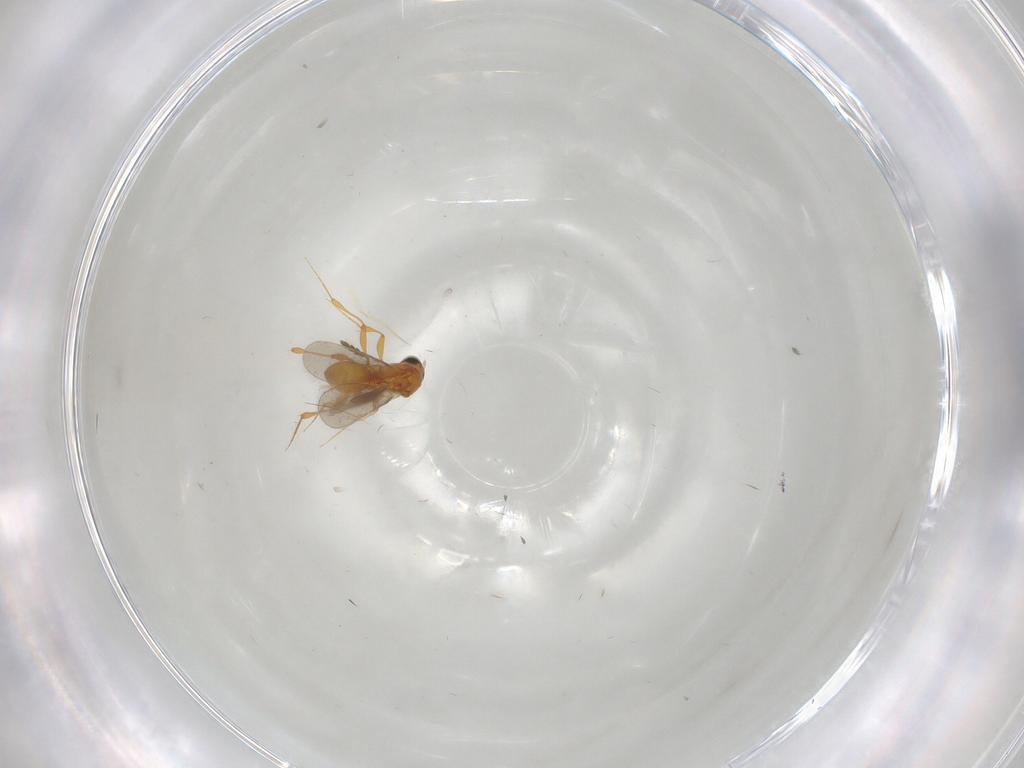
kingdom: Animalia
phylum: Arthropoda
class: Insecta
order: Hymenoptera
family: Platygastridae
